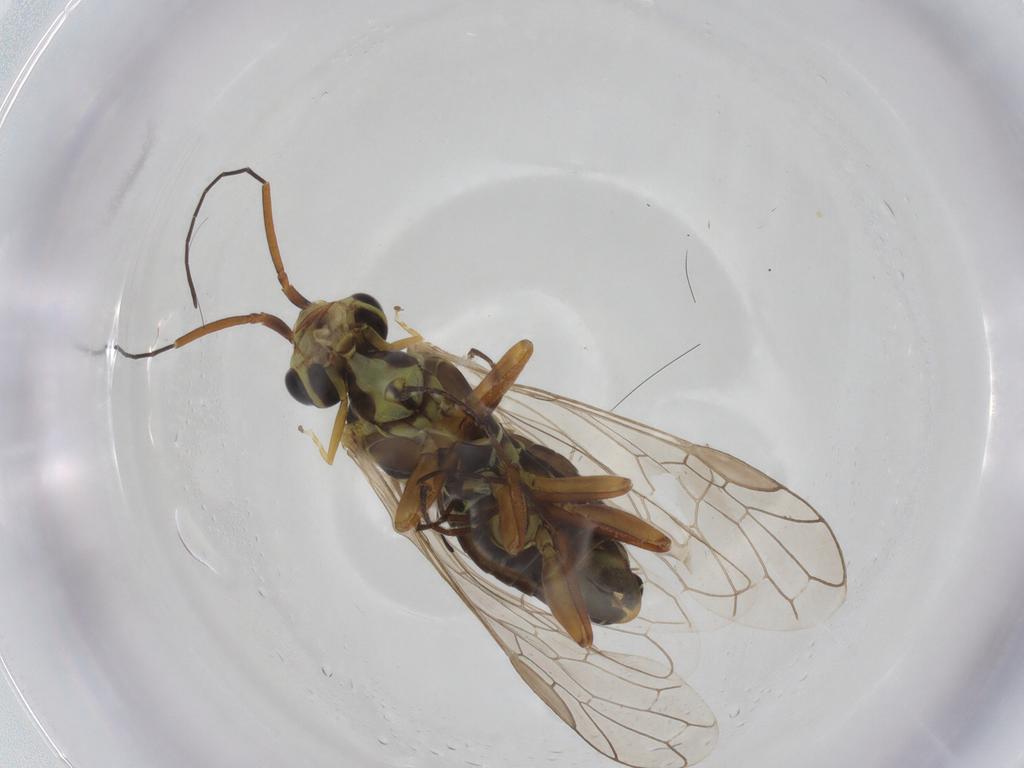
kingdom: Animalia
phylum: Arthropoda
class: Insecta
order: Hymenoptera
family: Xyelidae
